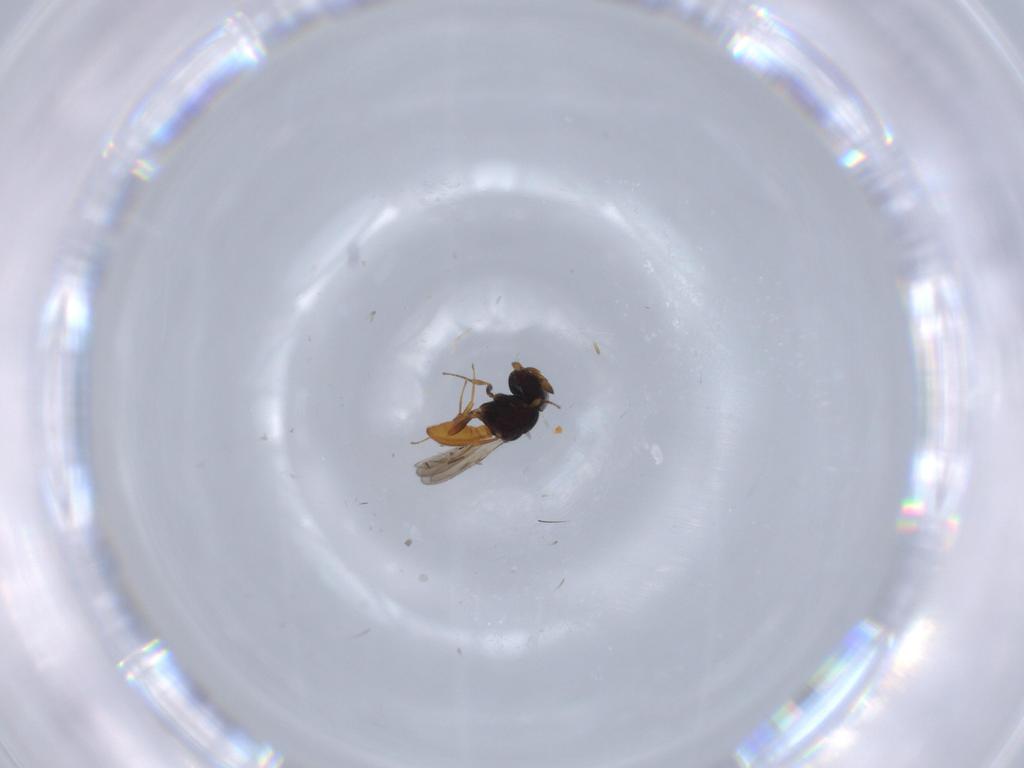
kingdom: Animalia
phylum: Arthropoda
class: Insecta
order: Hymenoptera
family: Scelionidae
